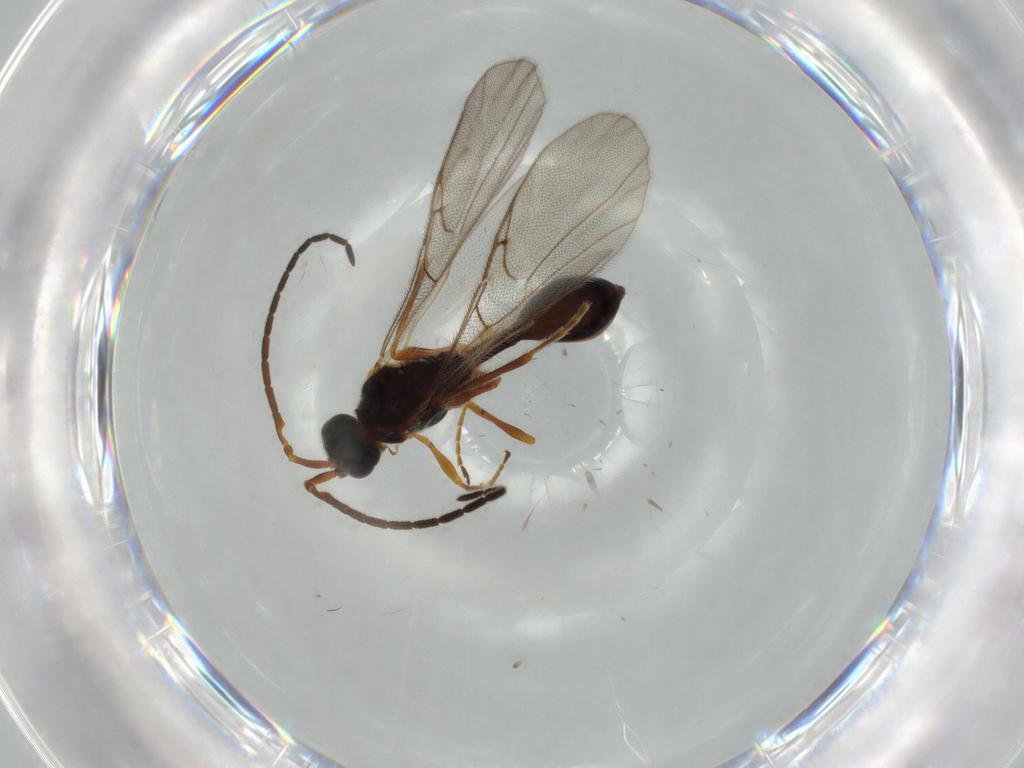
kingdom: Animalia
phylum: Arthropoda
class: Insecta
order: Hymenoptera
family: Ichneumonidae
